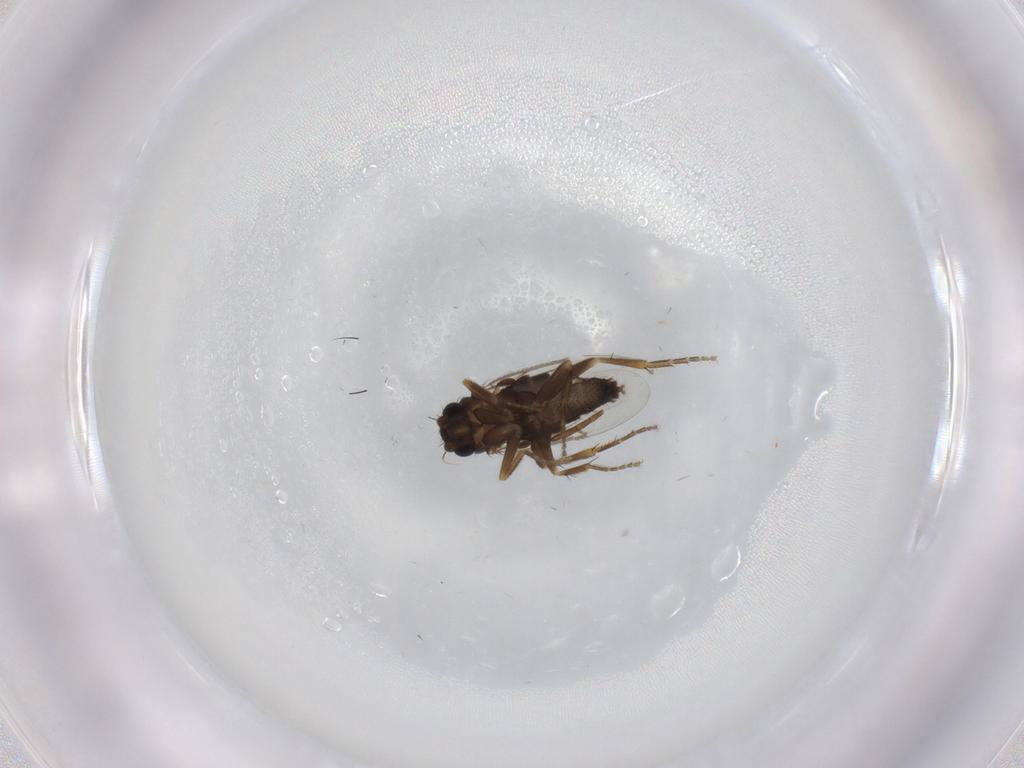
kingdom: Animalia
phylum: Arthropoda
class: Insecta
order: Diptera
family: Phoridae
